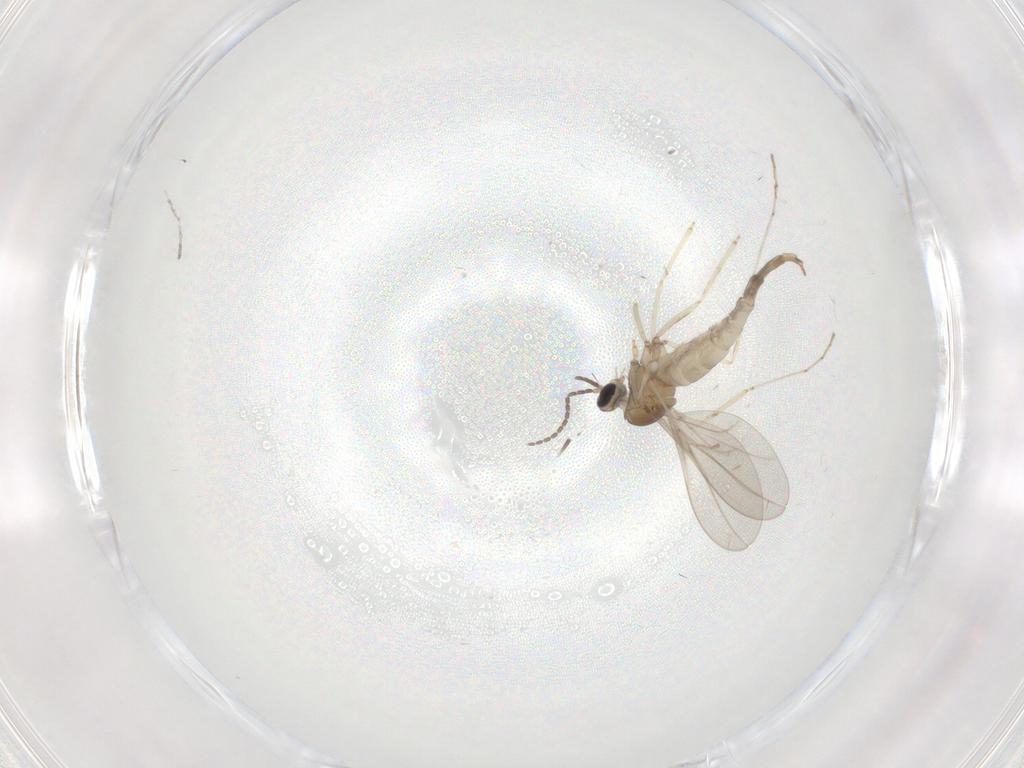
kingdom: Animalia
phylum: Arthropoda
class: Insecta
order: Diptera
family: Cecidomyiidae
